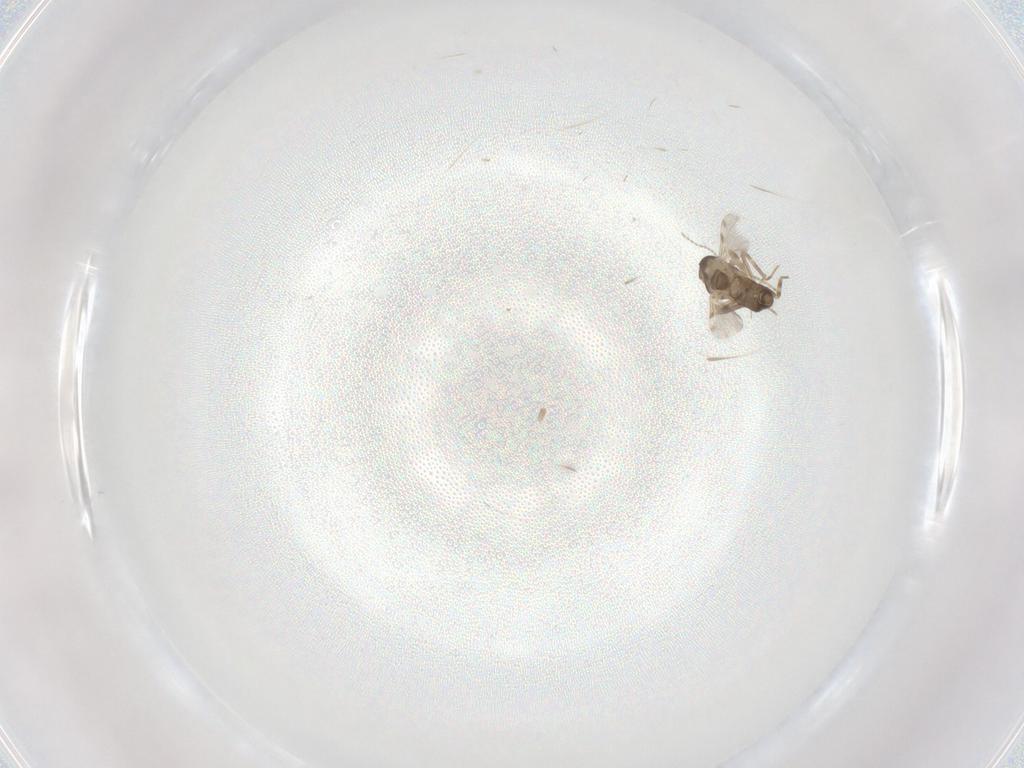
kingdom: Animalia
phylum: Arthropoda
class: Insecta
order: Diptera
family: Ceratopogonidae
